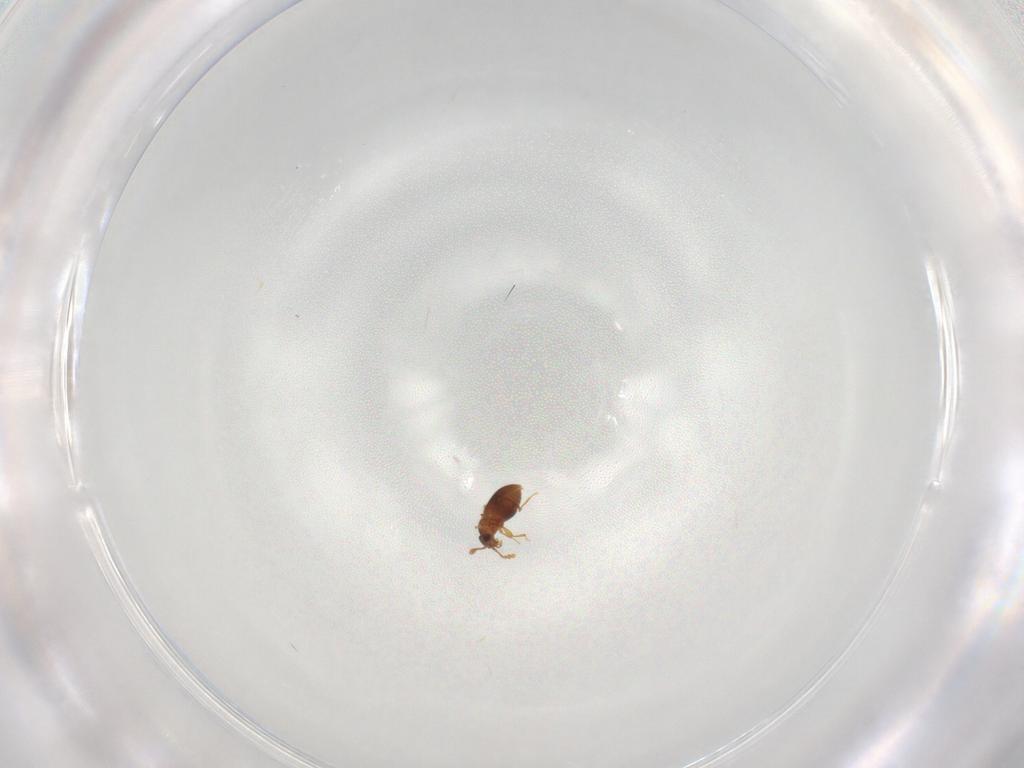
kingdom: Animalia
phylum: Arthropoda
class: Insecta
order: Coleoptera
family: Staphylinidae
